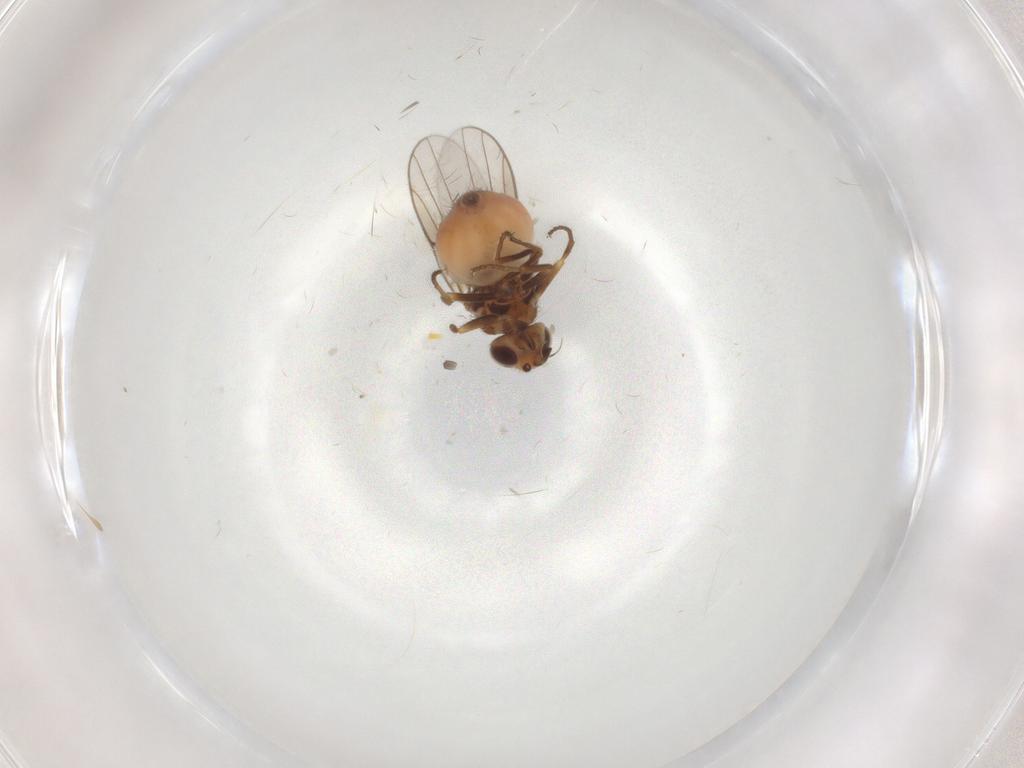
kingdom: Animalia
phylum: Arthropoda
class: Insecta
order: Diptera
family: Chloropidae
